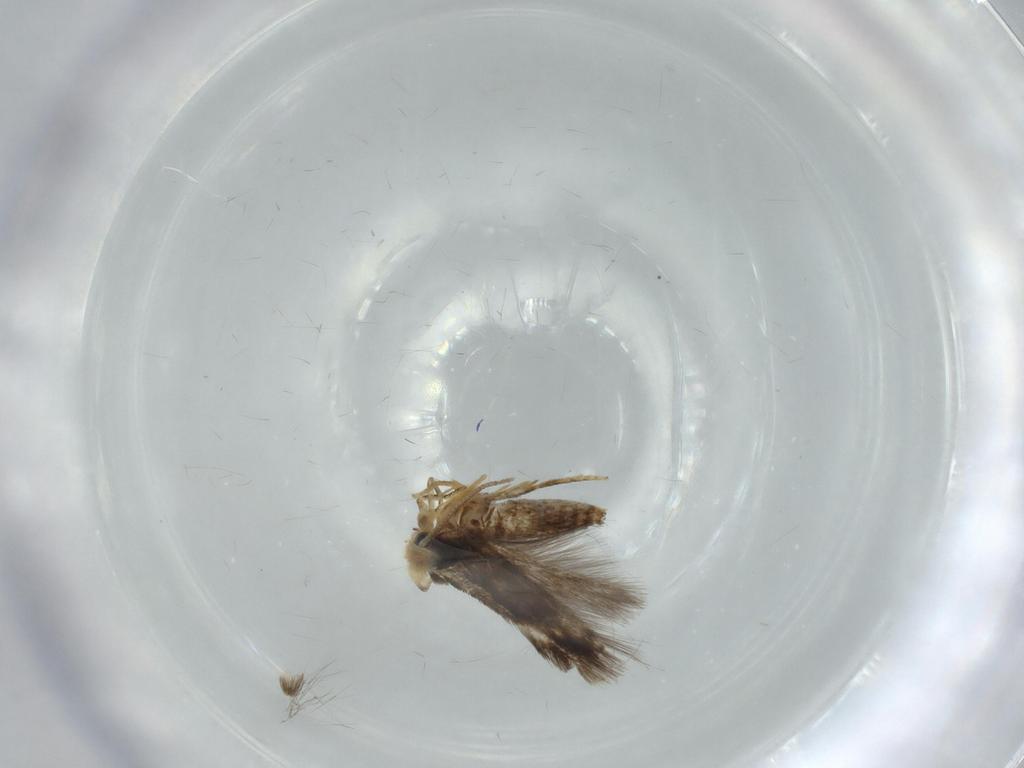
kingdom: Animalia
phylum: Arthropoda
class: Insecta
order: Lepidoptera
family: Nepticulidae
